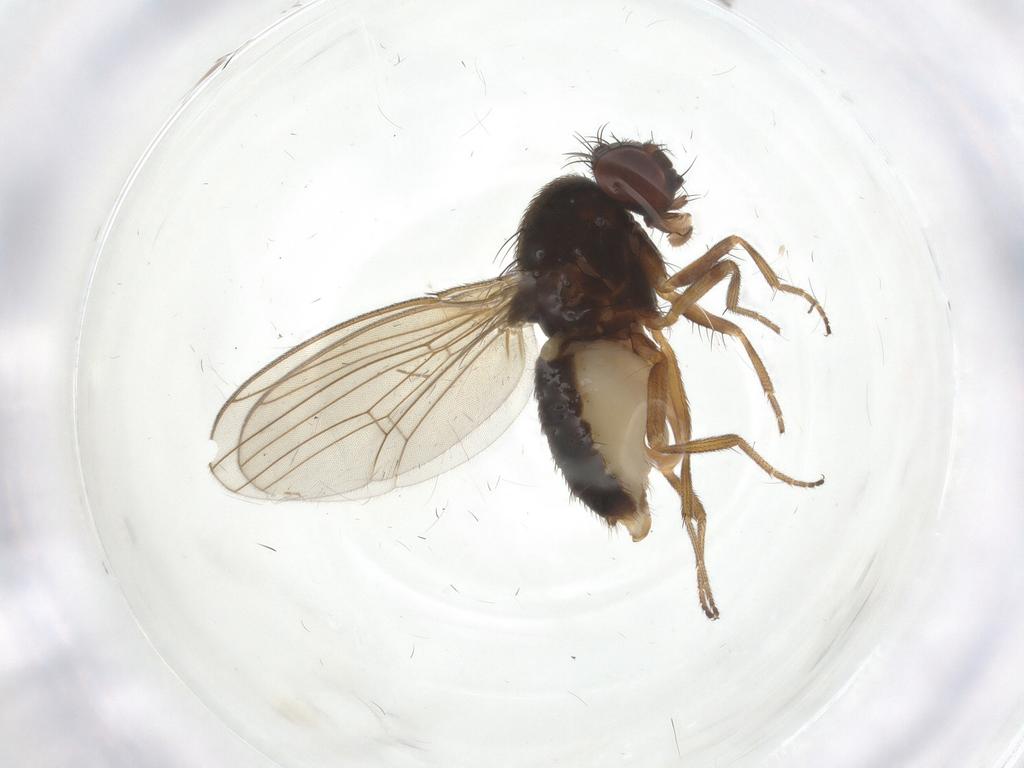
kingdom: Animalia
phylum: Arthropoda
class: Insecta
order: Diptera
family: Drosophilidae
